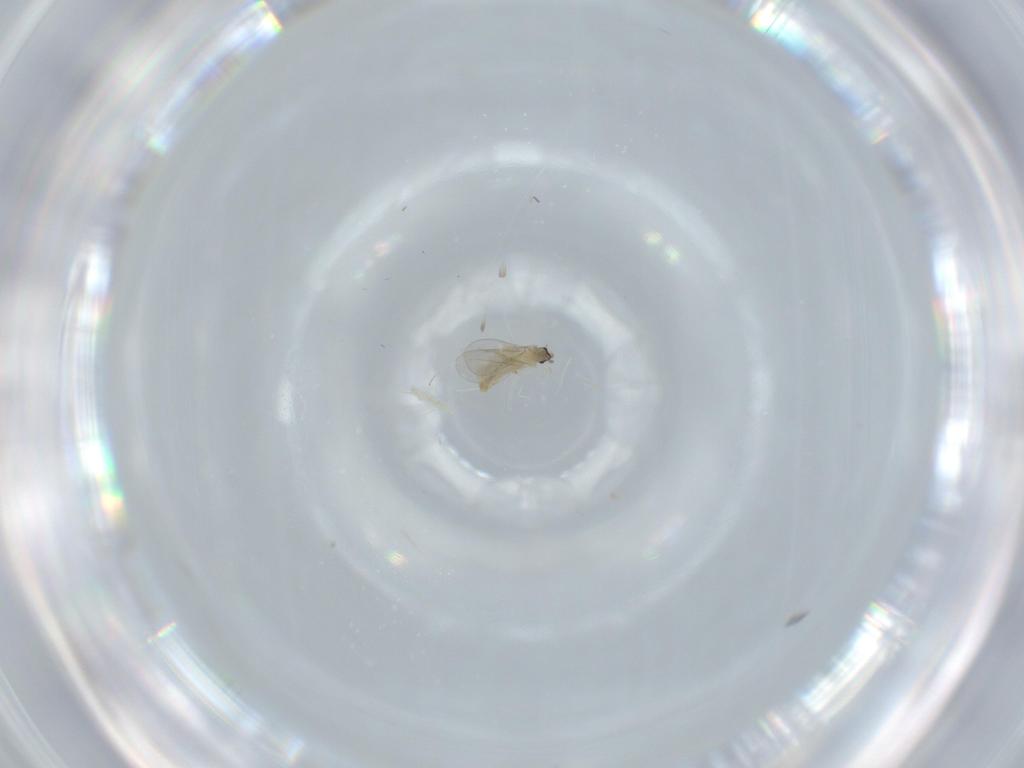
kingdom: Animalia
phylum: Arthropoda
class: Insecta
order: Diptera
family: Cecidomyiidae
